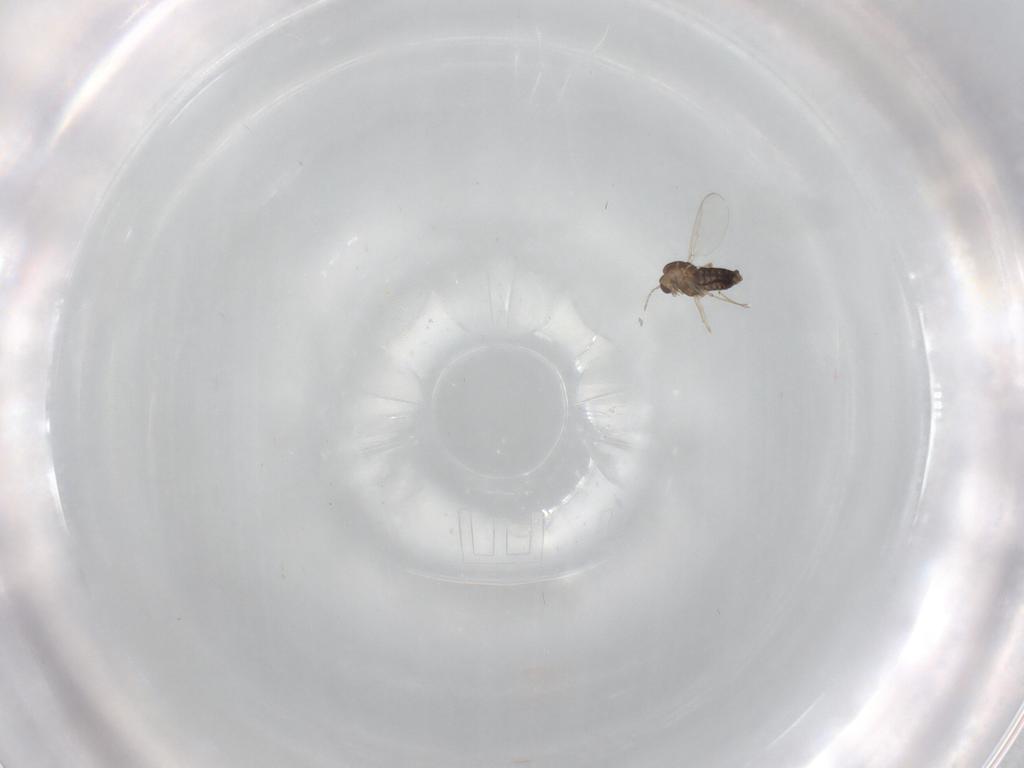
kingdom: Animalia
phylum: Arthropoda
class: Insecta
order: Diptera
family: Chironomidae
